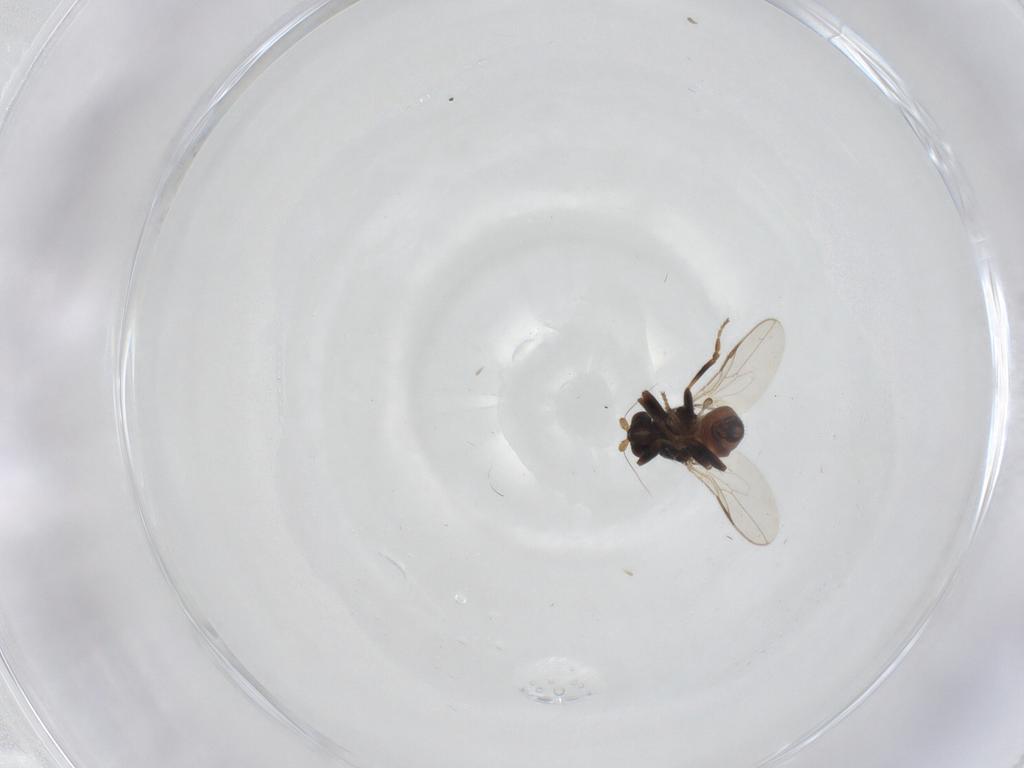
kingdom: Animalia
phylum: Arthropoda
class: Insecta
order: Diptera
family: Sphaeroceridae
